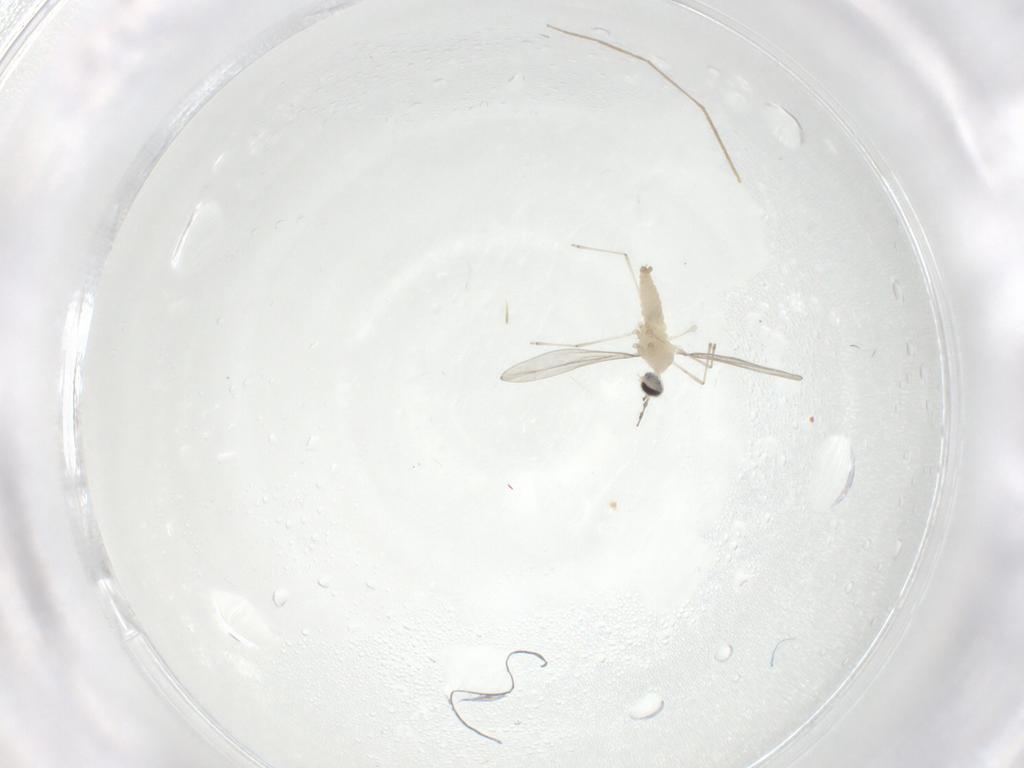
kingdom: Animalia
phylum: Arthropoda
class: Insecta
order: Diptera
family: Chironomidae
